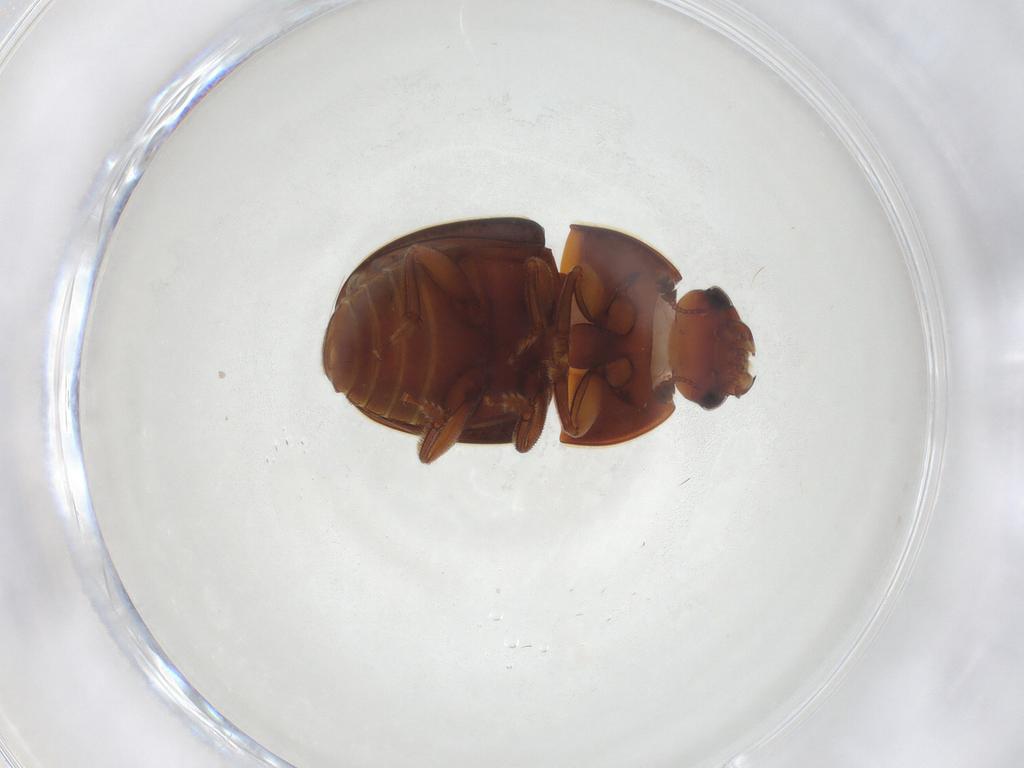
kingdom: Animalia
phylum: Arthropoda
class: Insecta
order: Coleoptera
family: Nitidulidae
